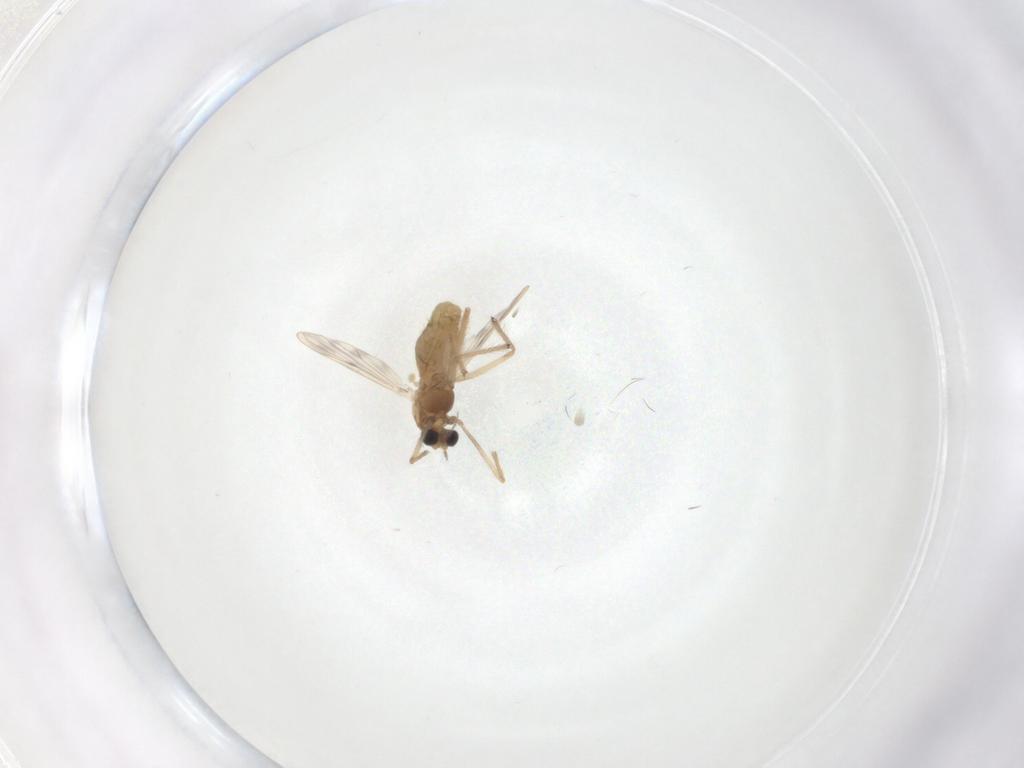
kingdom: Animalia
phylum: Arthropoda
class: Insecta
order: Diptera
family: Chironomidae
